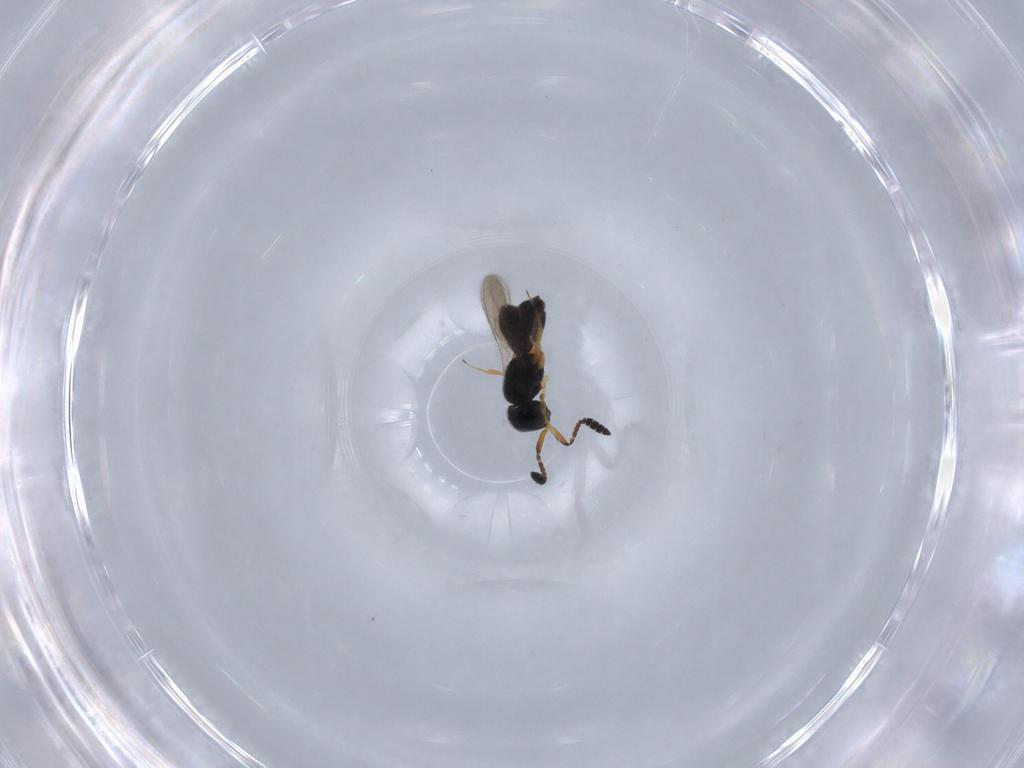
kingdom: Animalia
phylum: Arthropoda
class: Insecta
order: Hymenoptera
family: Scelionidae
